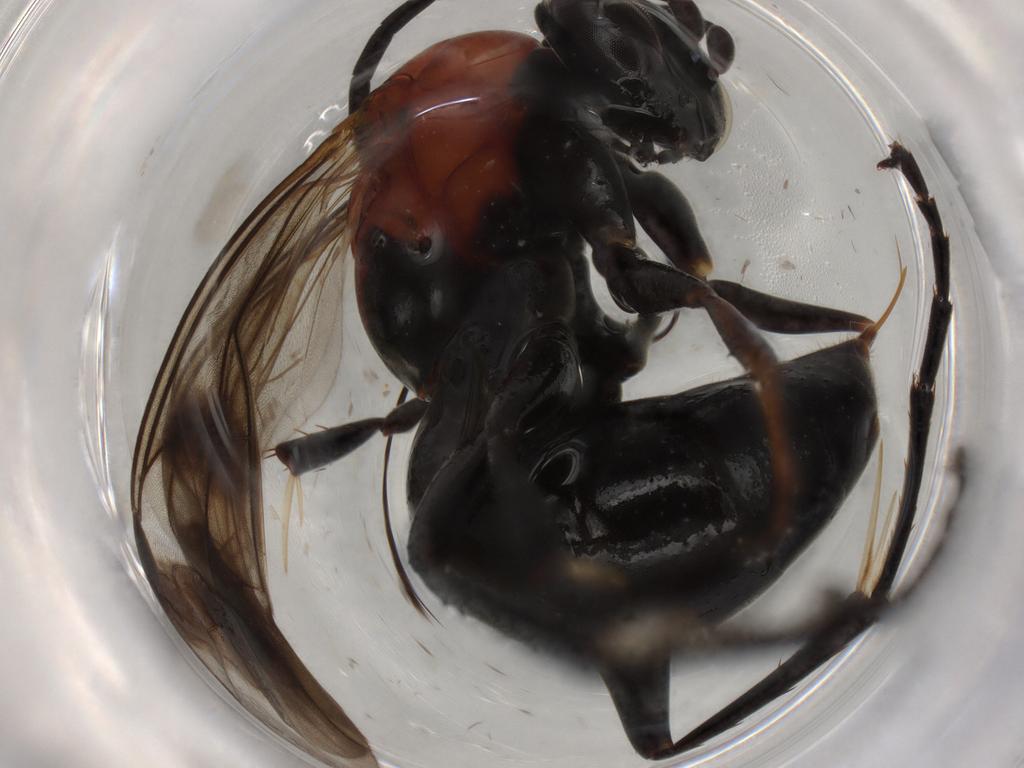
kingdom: Animalia
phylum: Arthropoda
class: Insecta
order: Hymenoptera
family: Pompilidae
